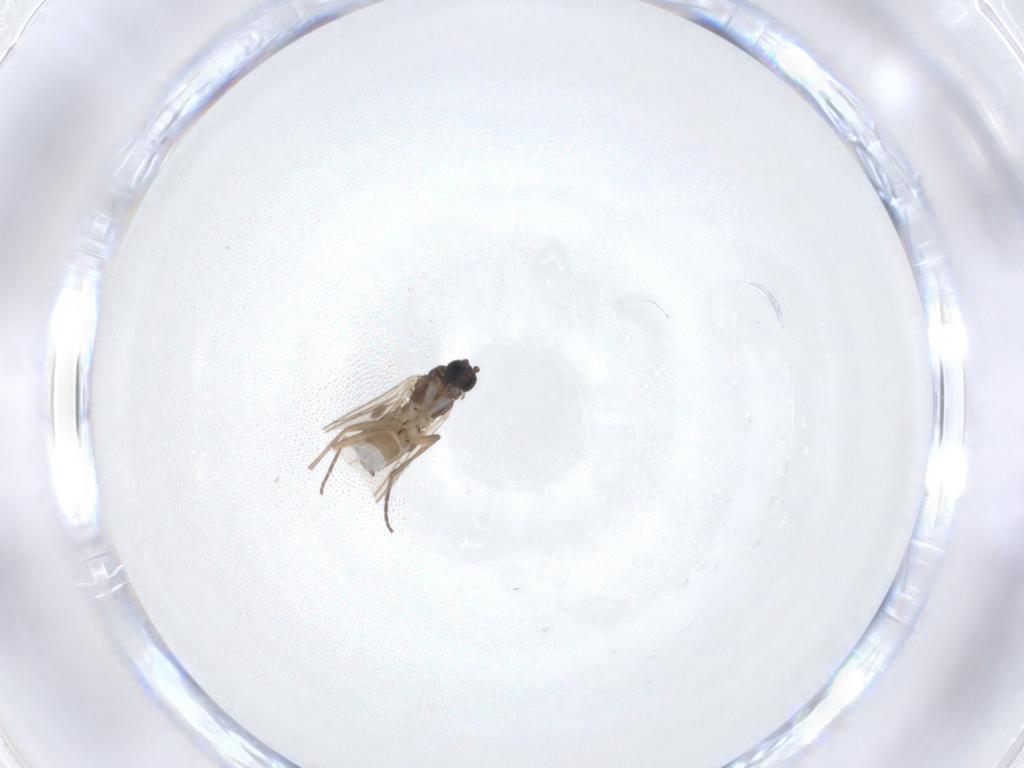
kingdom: Animalia
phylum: Arthropoda
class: Insecta
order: Diptera
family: Sciaridae
